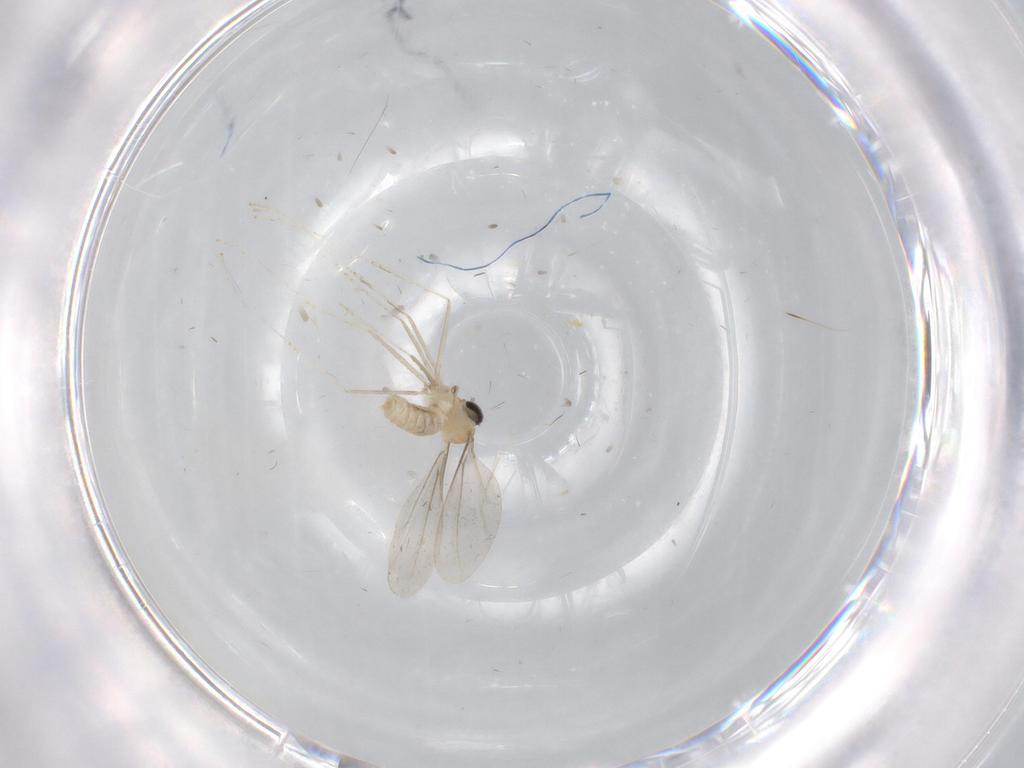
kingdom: Animalia
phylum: Arthropoda
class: Insecta
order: Diptera
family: Cecidomyiidae
